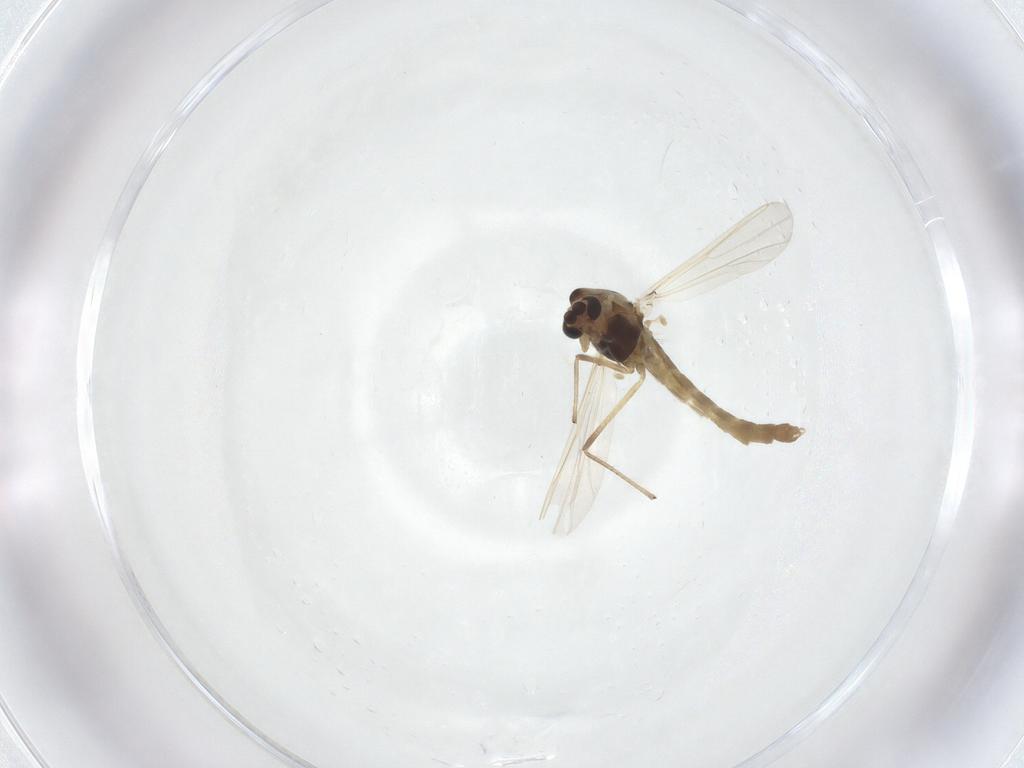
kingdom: Animalia
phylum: Arthropoda
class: Insecta
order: Diptera
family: Chironomidae
